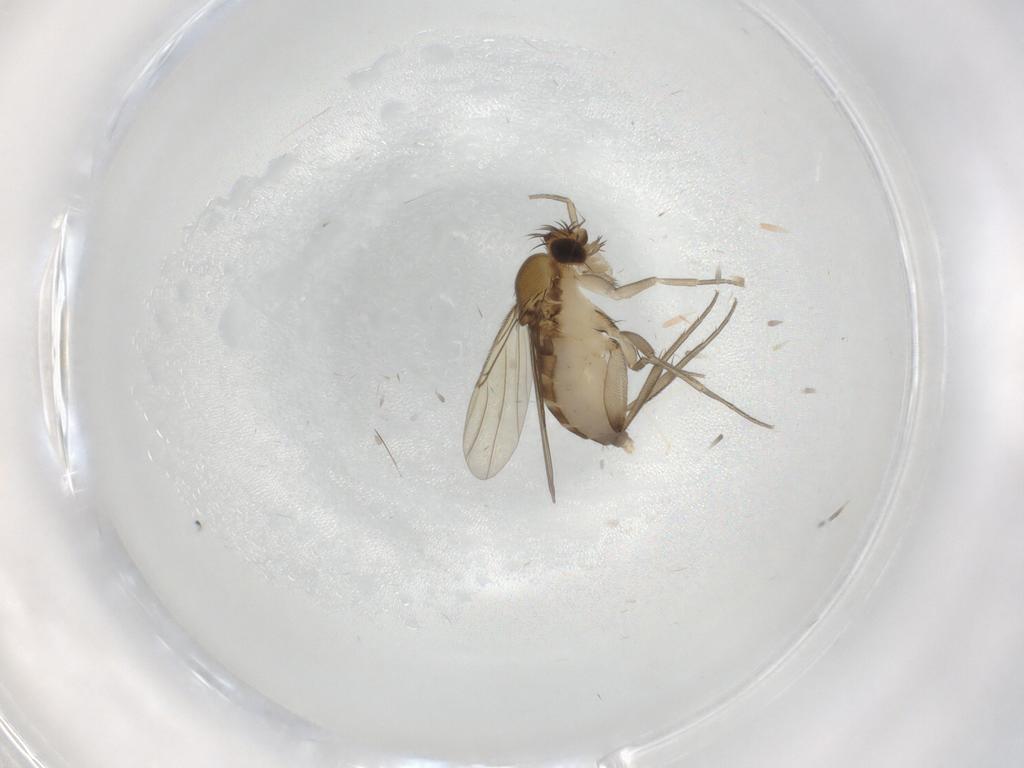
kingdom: Animalia
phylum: Arthropoda
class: Insecta
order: Diptera
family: Phoridae
